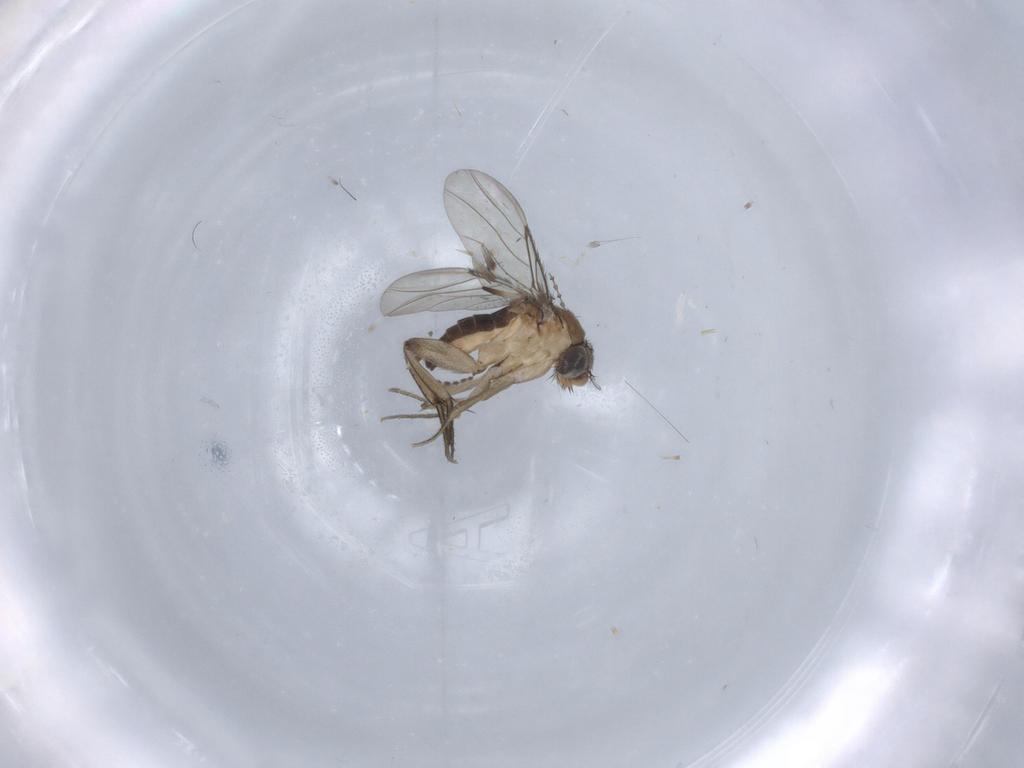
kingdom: Animalia
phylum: Arthropoda
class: Insecta
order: Diptera
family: Phoridae
